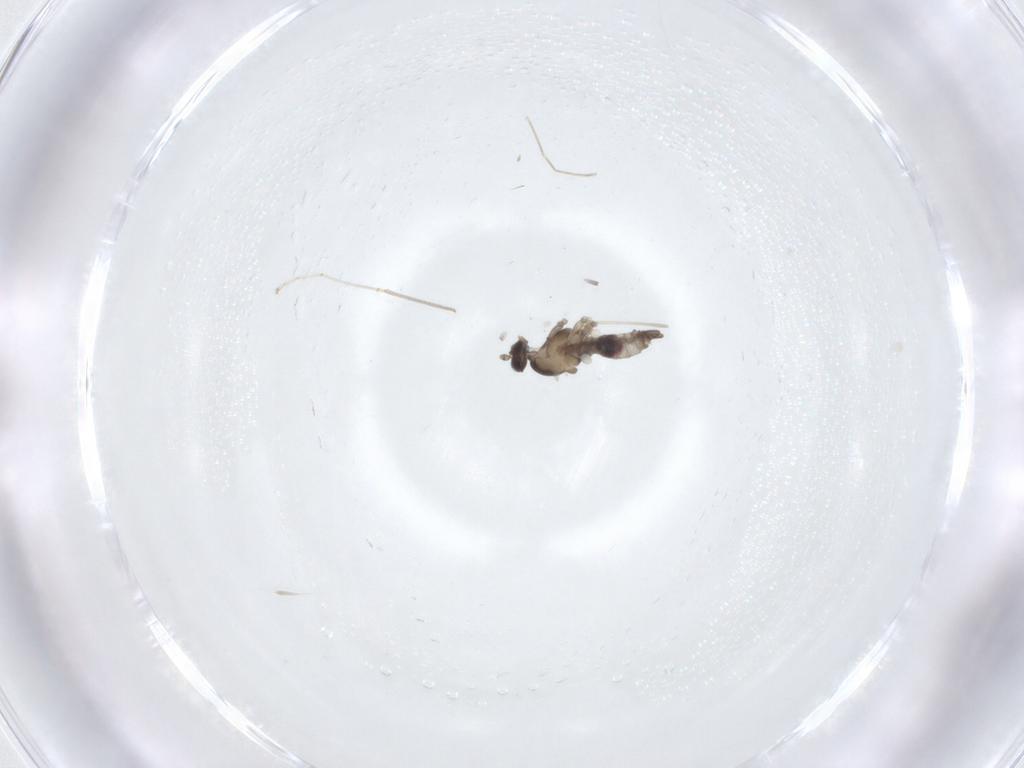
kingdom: Animalia
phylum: Arthropoda
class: Insecta
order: Diptera
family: Cecidomyiidae
